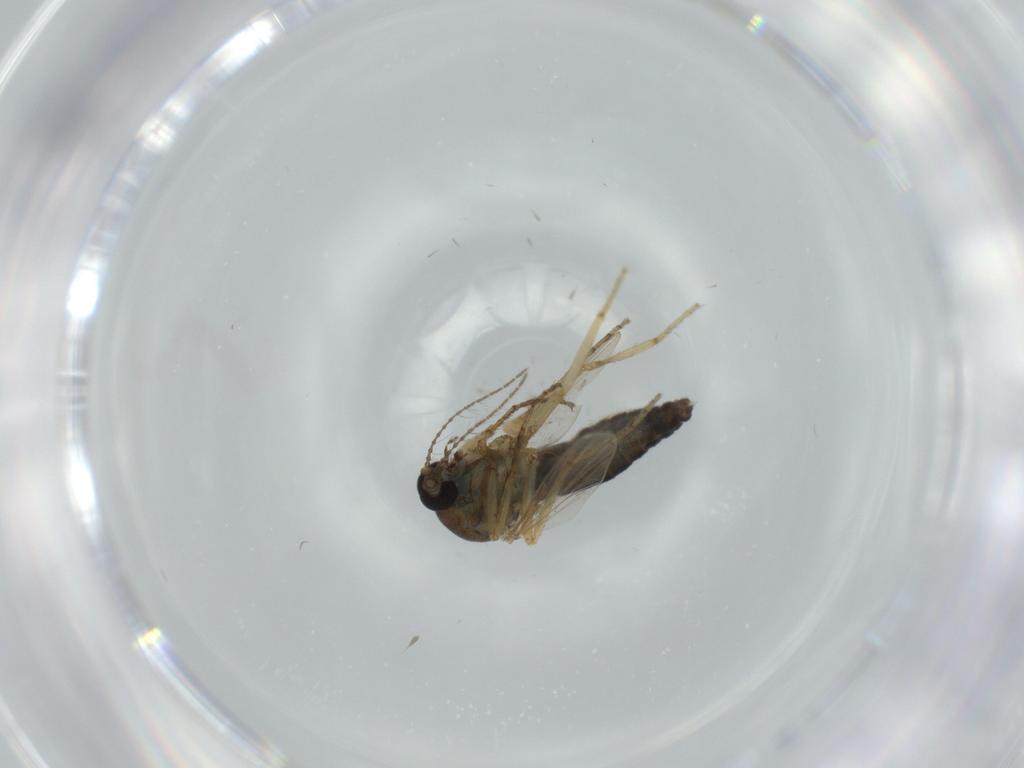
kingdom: Animalia
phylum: Arthropoda
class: Insecta
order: Diptera
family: Ceratopogonidae
